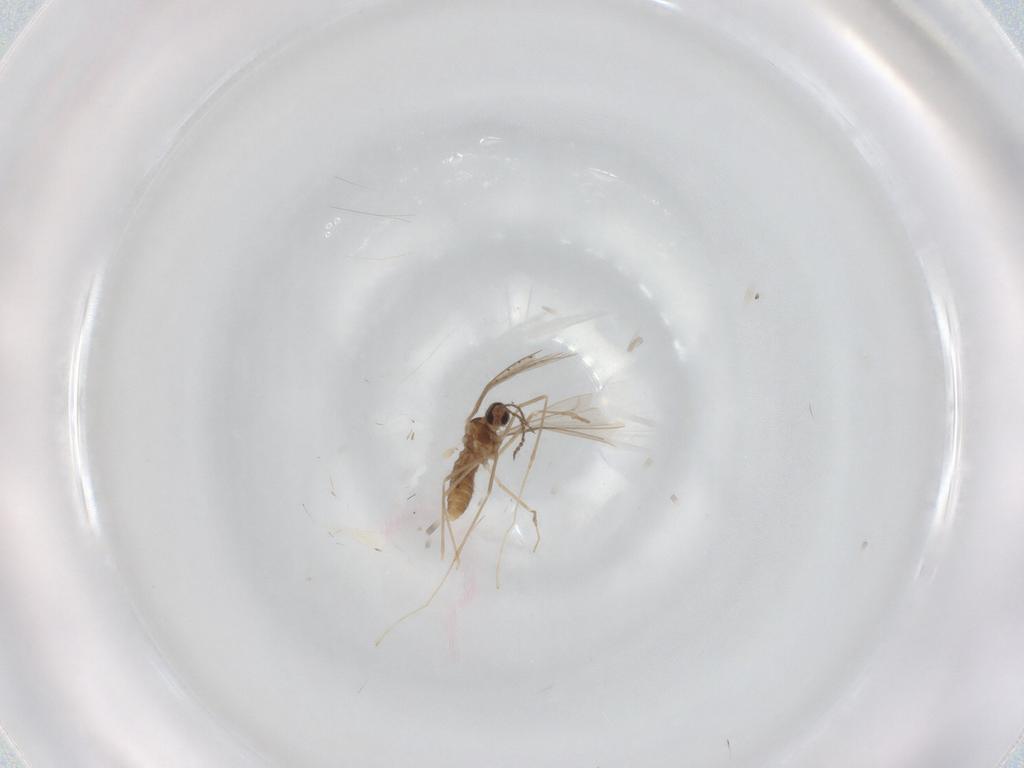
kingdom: Animalia
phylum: Arthropoda
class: Insecta
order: Diptera
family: Cecidomyiidae
